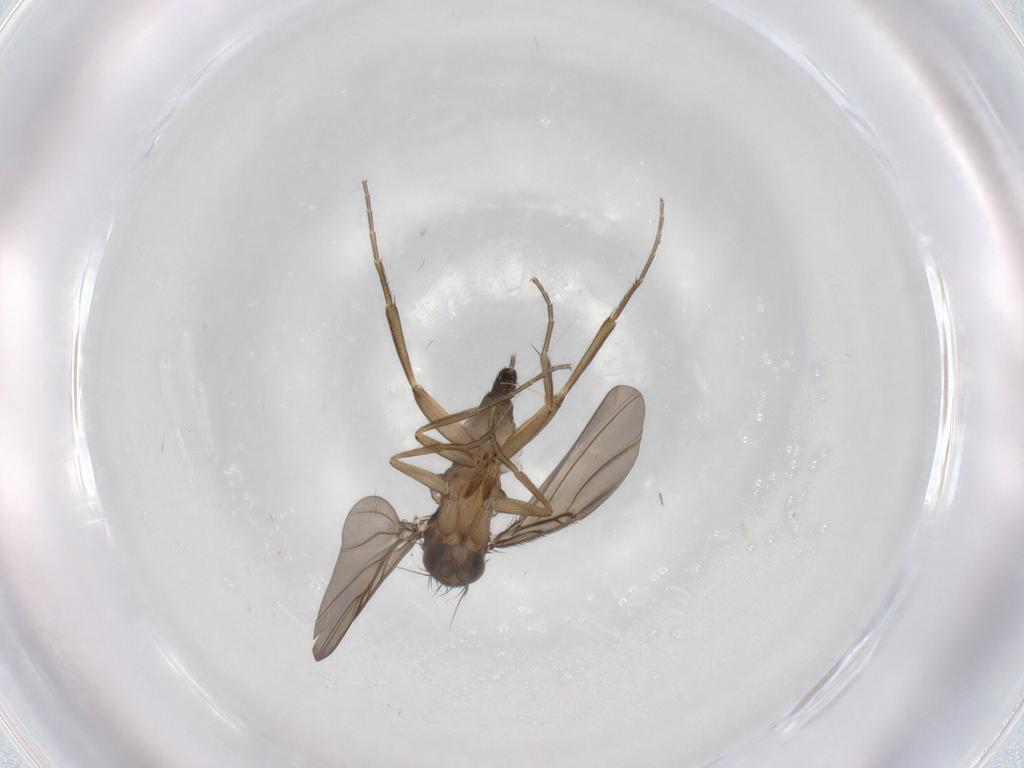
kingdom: Animalia
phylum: Arthropoda
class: Insecta
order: Diptera
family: Phoridae
